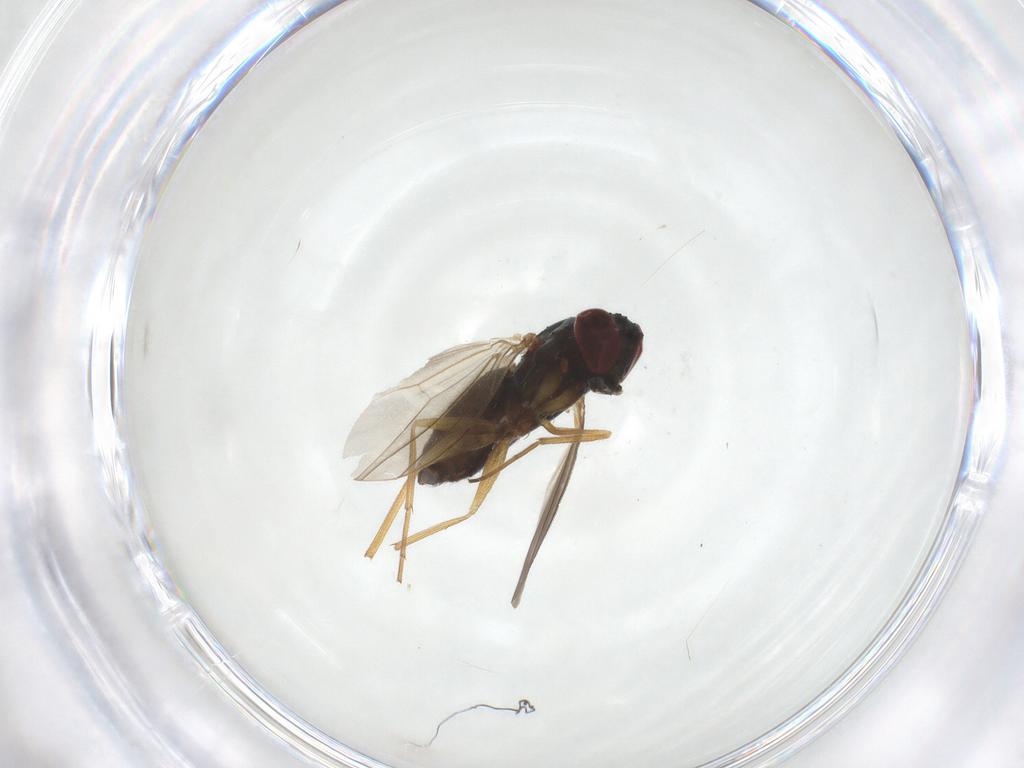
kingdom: Animalia
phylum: Arthropoda
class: Insecta
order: Diptera
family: Dolichopodidae
